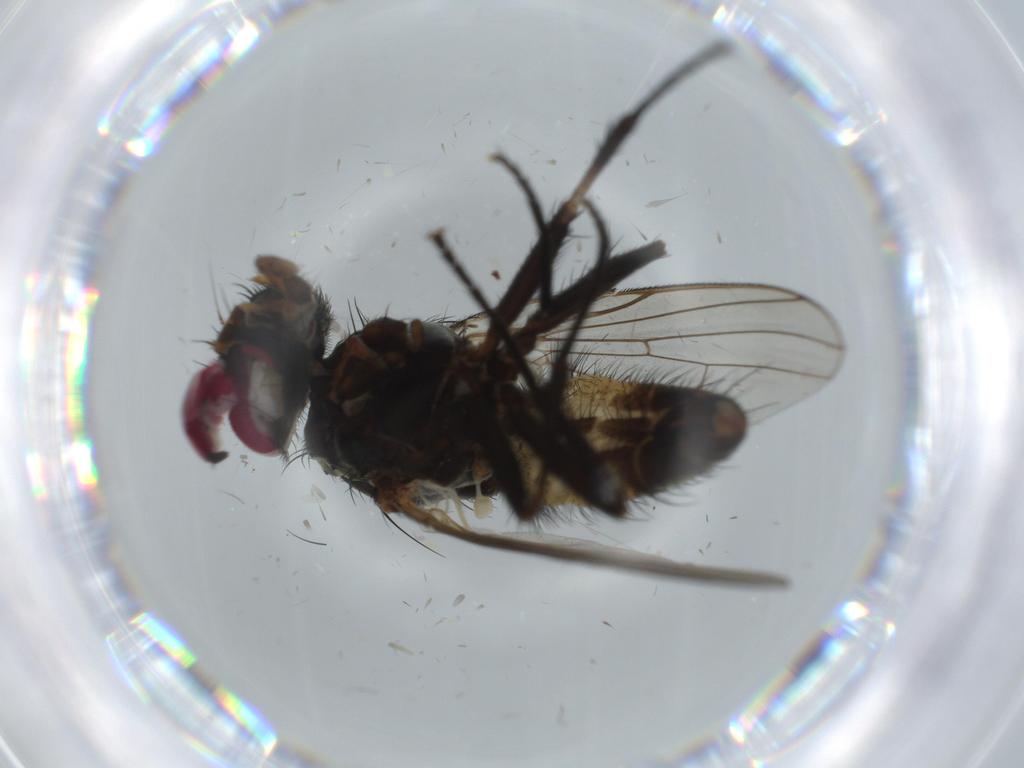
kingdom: Animalia
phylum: Arthropoda
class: Insecta
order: Diptera
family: Fannia
